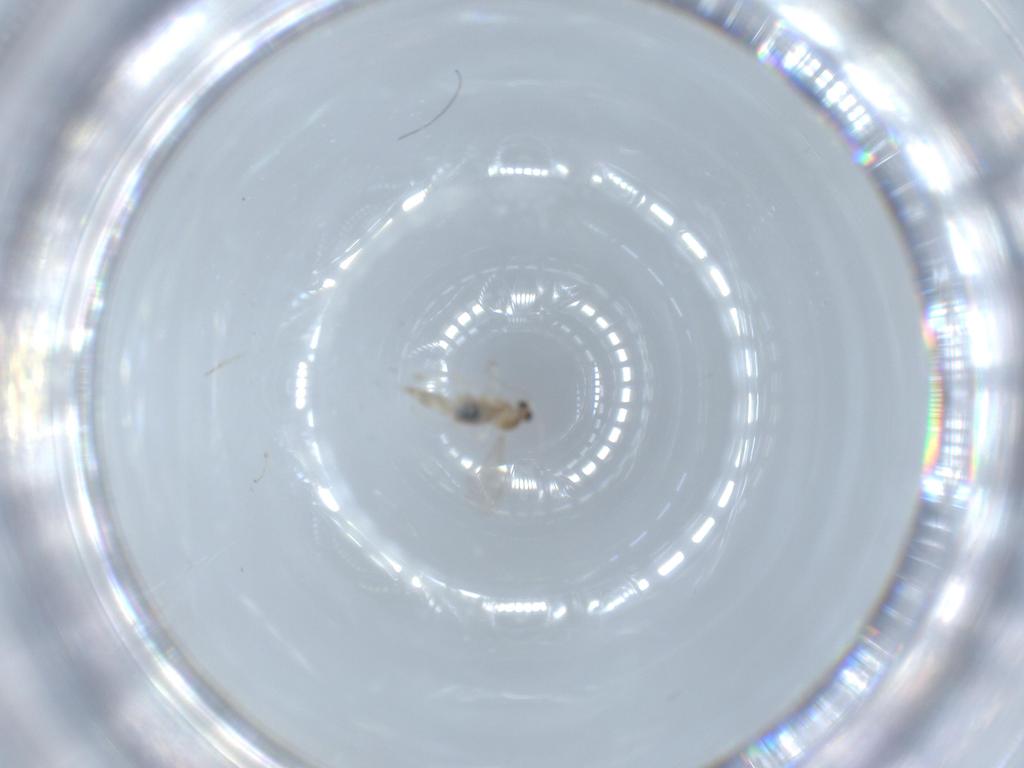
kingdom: Animalia
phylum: Arthropoda
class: Insecta
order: Diptera
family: Cecidomyiidae
